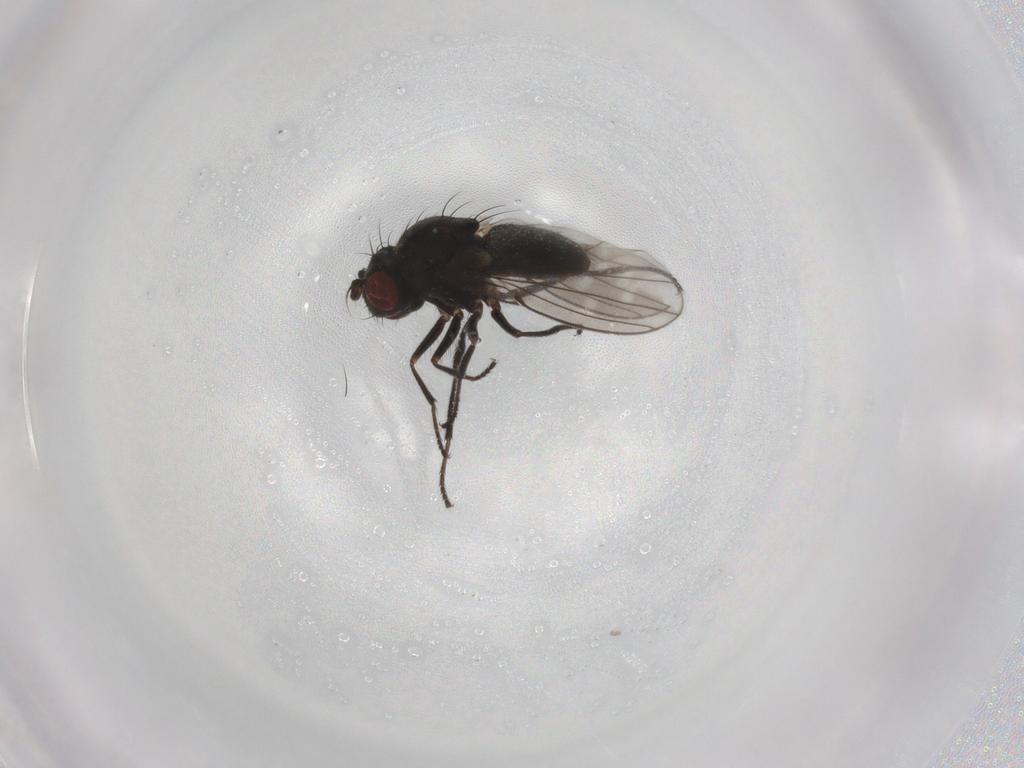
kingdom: Animalia
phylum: Arthropoda
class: Insecta
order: Diptera
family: Ephydridae
